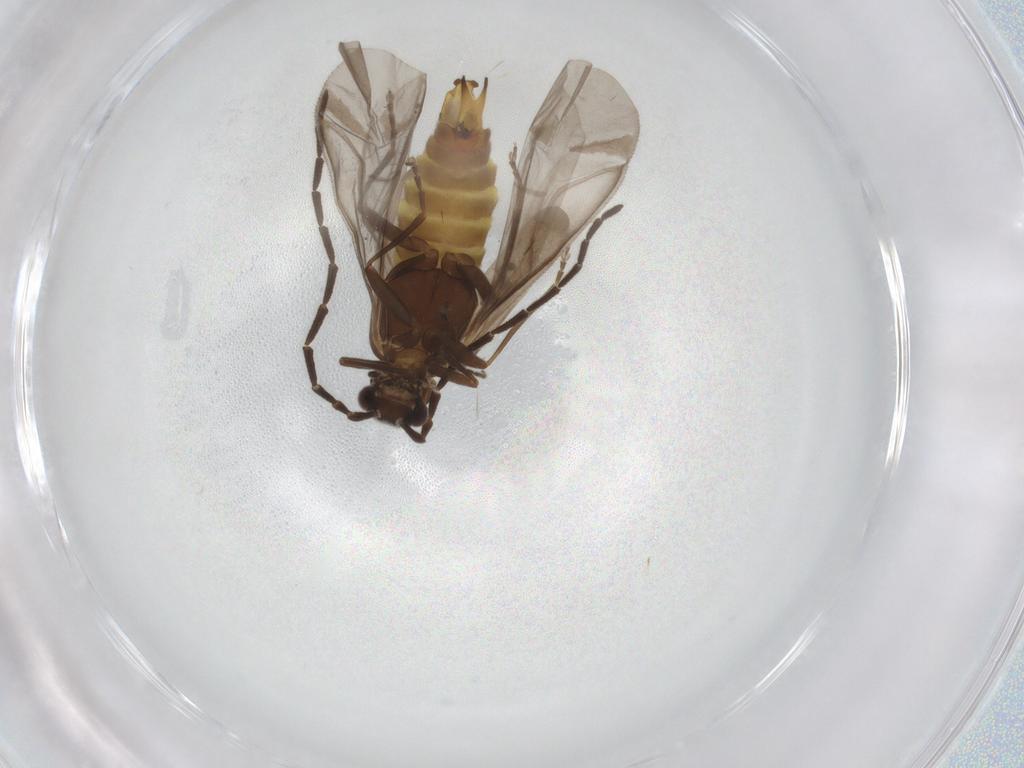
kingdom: Animalia
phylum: Arthropoda
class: Insecta
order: Coleoptera
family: Cantharidae
